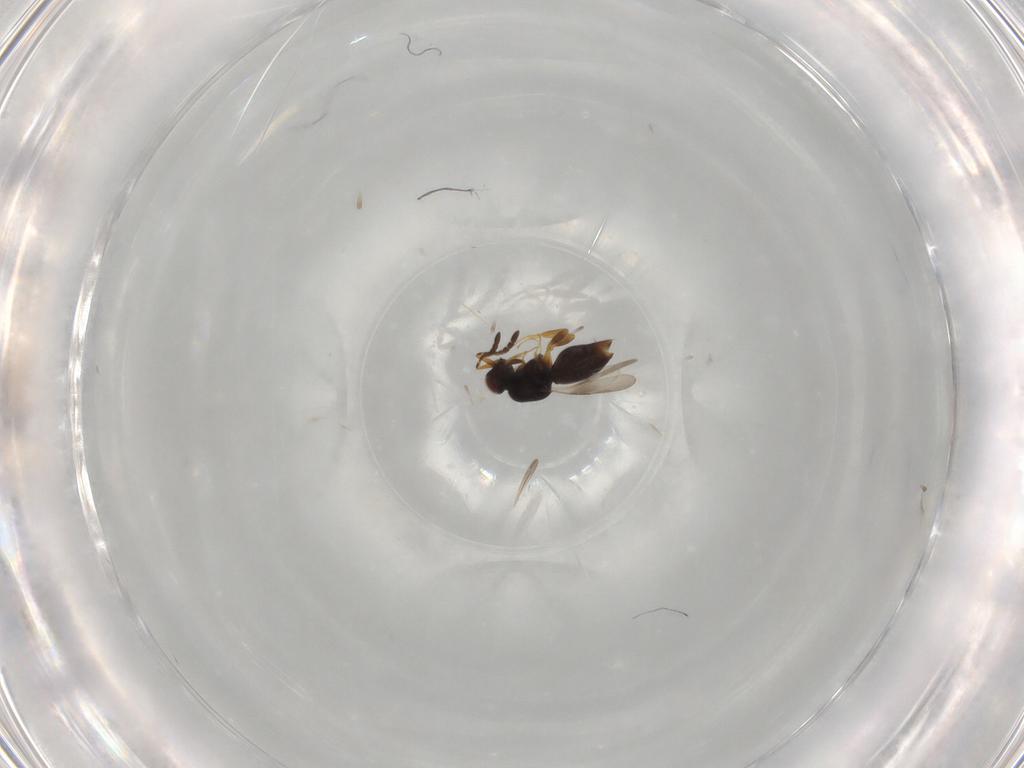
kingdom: Animalia
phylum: Arthropoda
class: Insecta
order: Hymenoptera
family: Ceraphronidae
